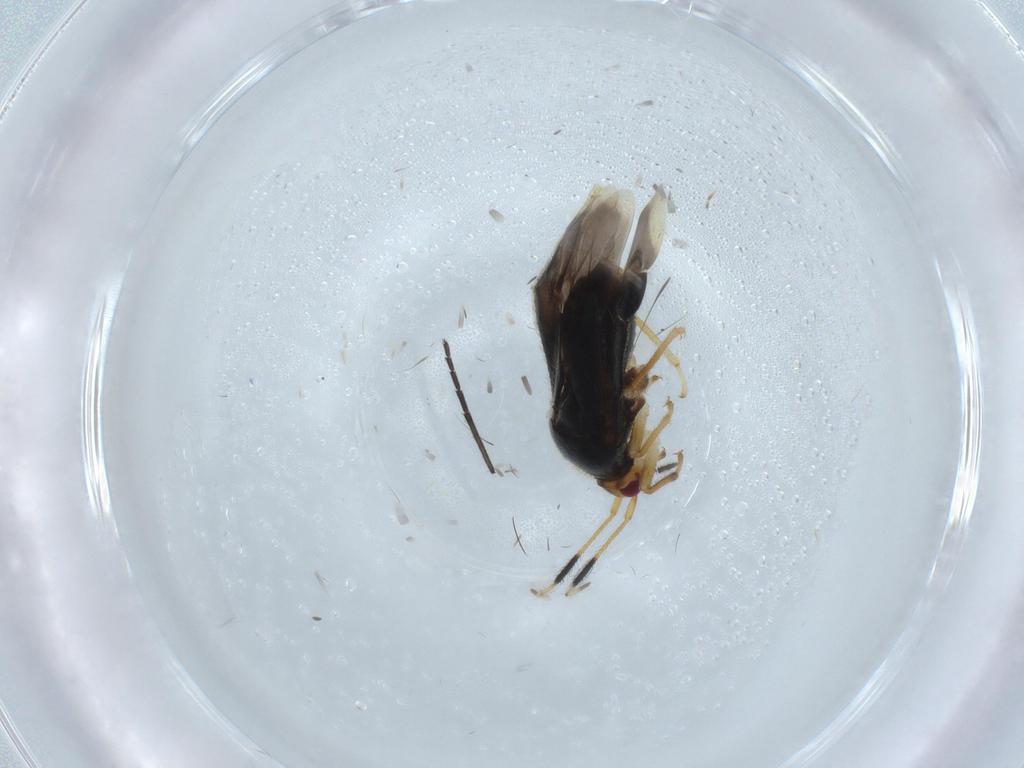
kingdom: Animalia
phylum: Arthropoda
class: Insecta
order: Hemiptera
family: Miridae
